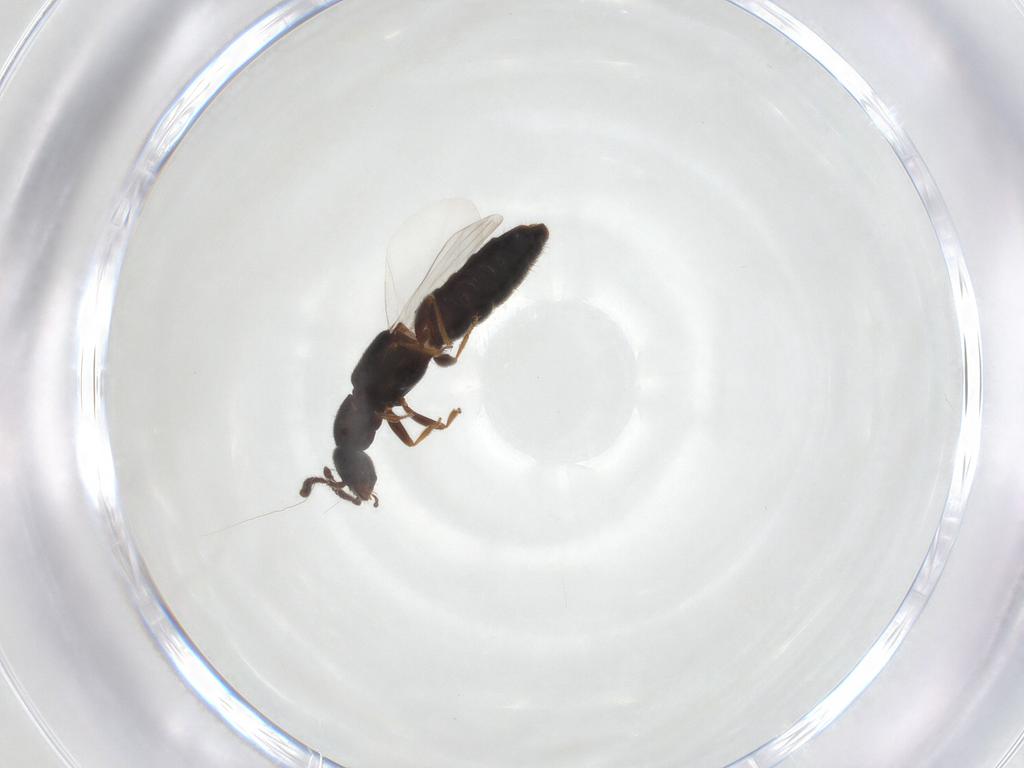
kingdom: Animalia
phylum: Arthropoda
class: Insecta
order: Coleoptera
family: Staphylinidae
